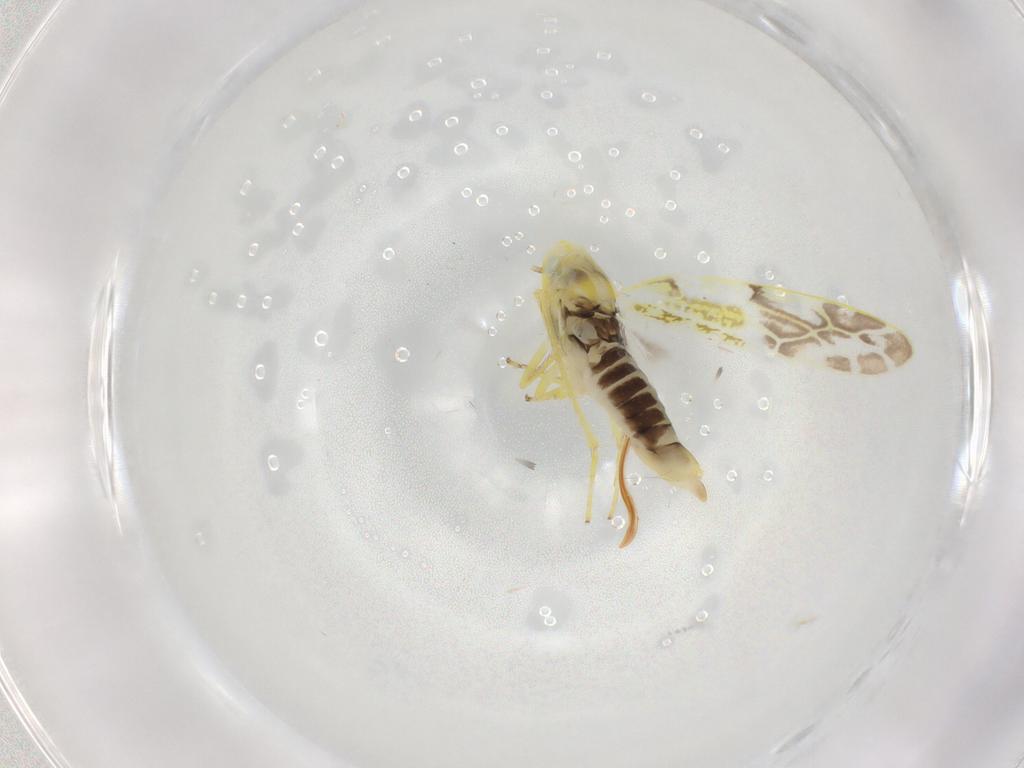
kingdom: Animalia
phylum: Arthropoda
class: Insecta
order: Hemiptera
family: Cicadellidae
